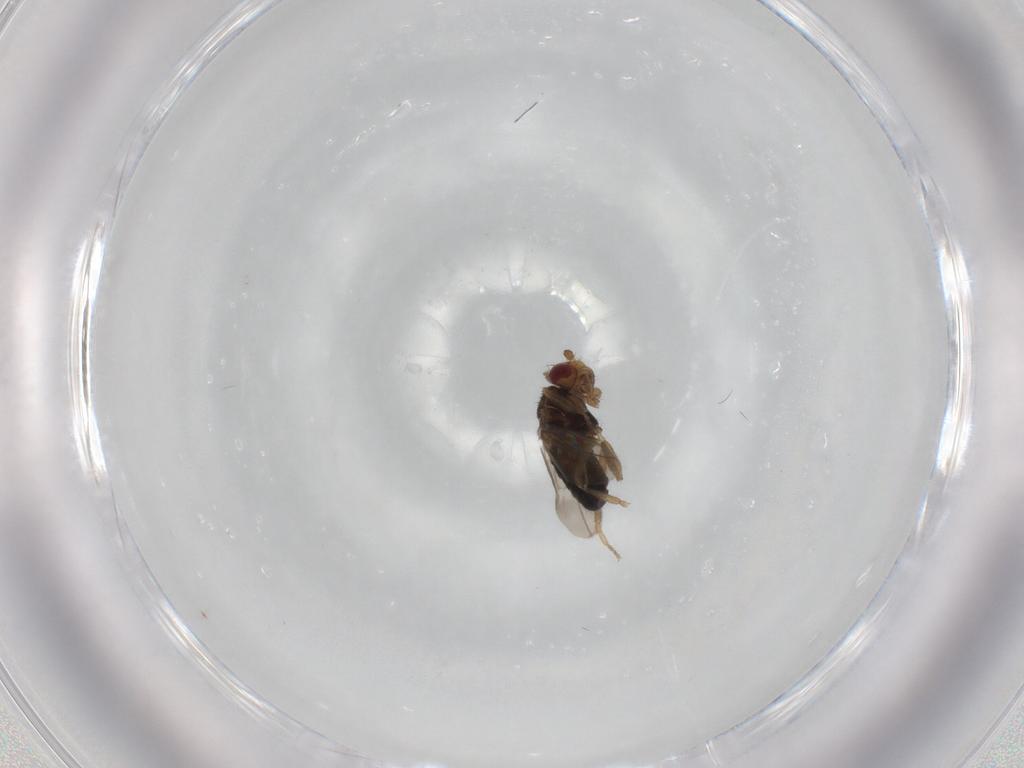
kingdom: Animalia
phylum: Arthropoda
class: Insecta
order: Diptera
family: Sphaeroceridae
